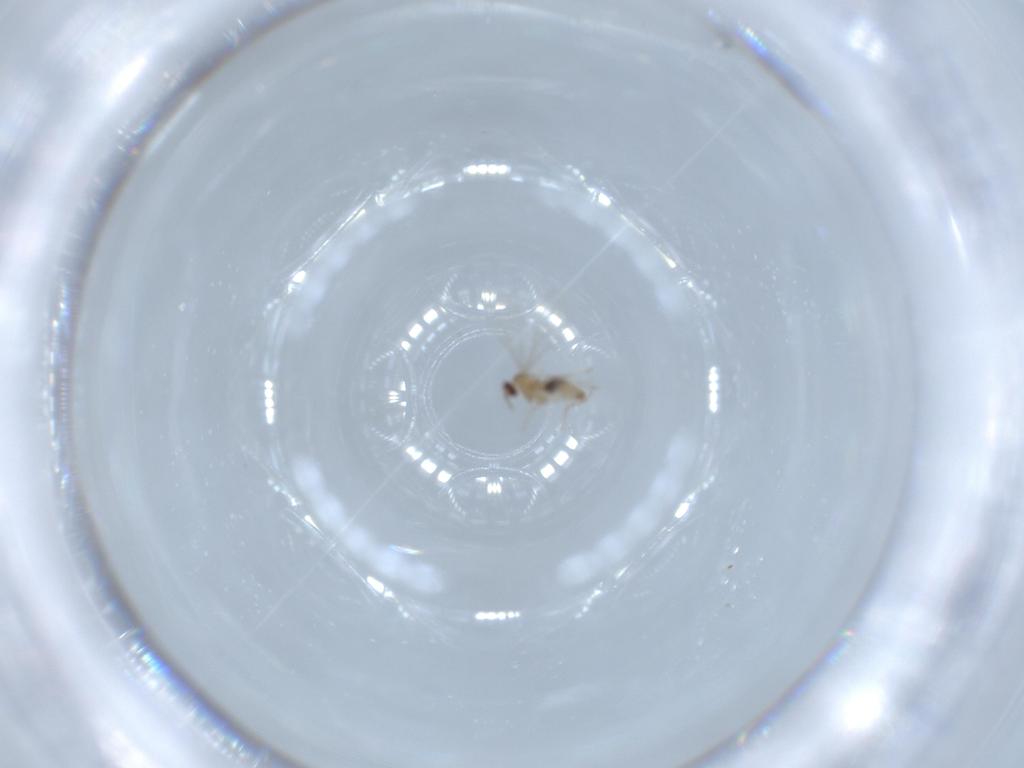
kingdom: Animalia
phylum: Arthropoda
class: Insecta
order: Diptera
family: Cecidomyiidae
